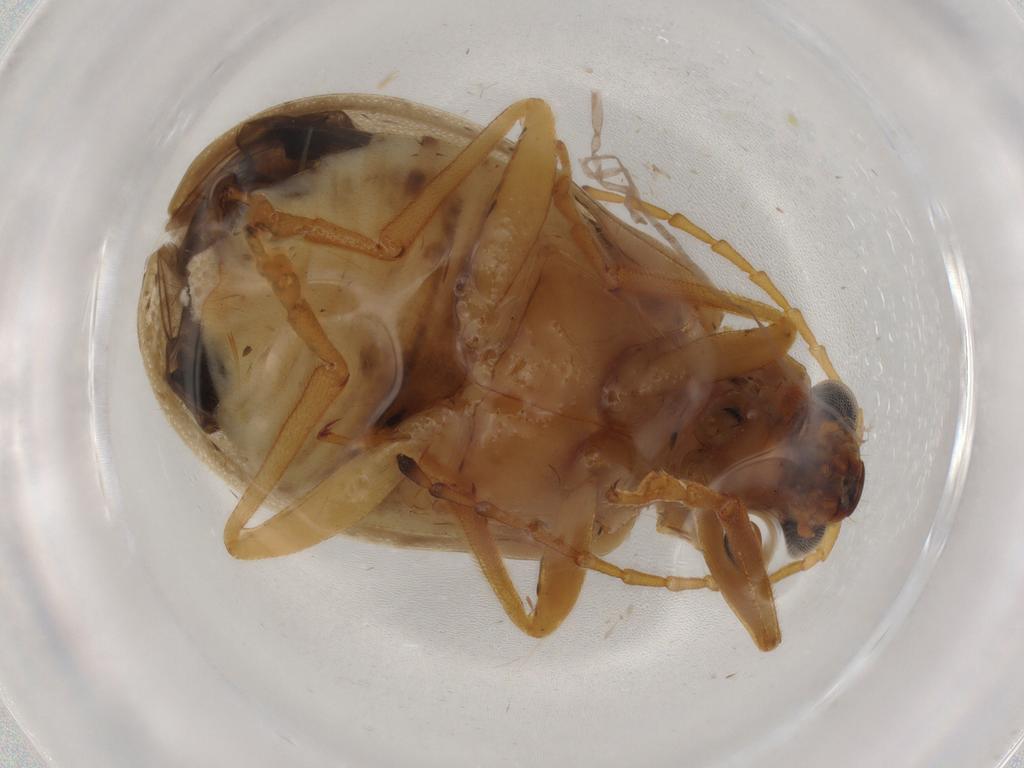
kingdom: Animalia
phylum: Arthropoda
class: Insecta
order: Coleoptera
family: Chrysomelidae
